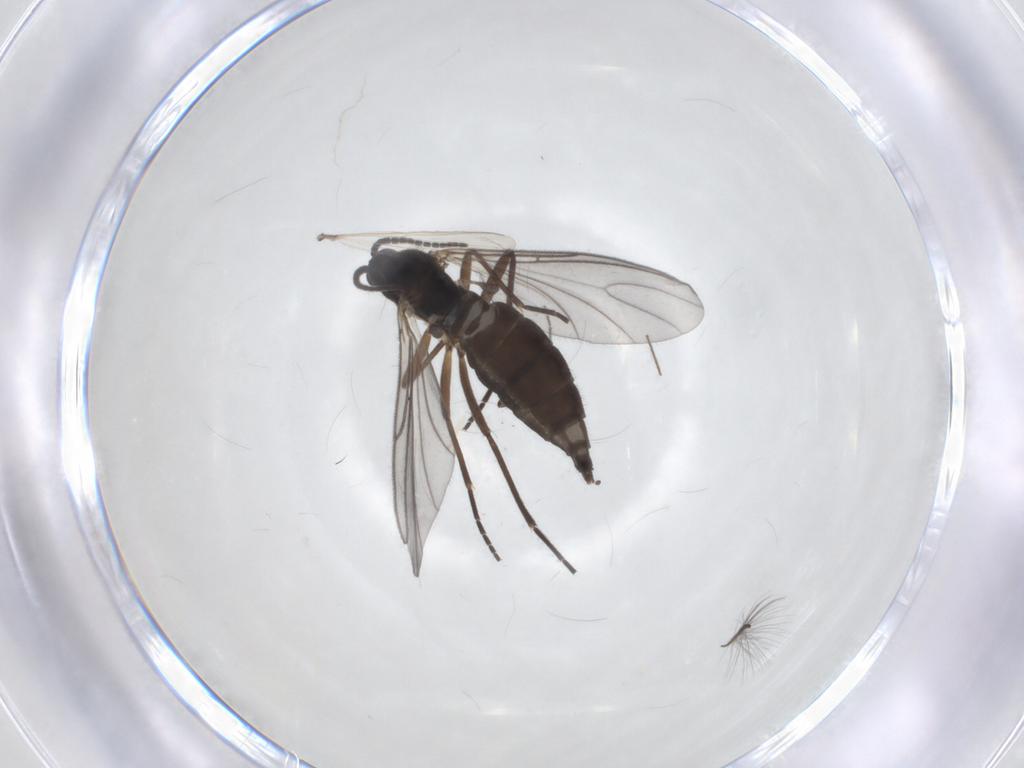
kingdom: Animalia
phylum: Arthropoda
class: Insecta
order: Diptera
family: Sciaridae
